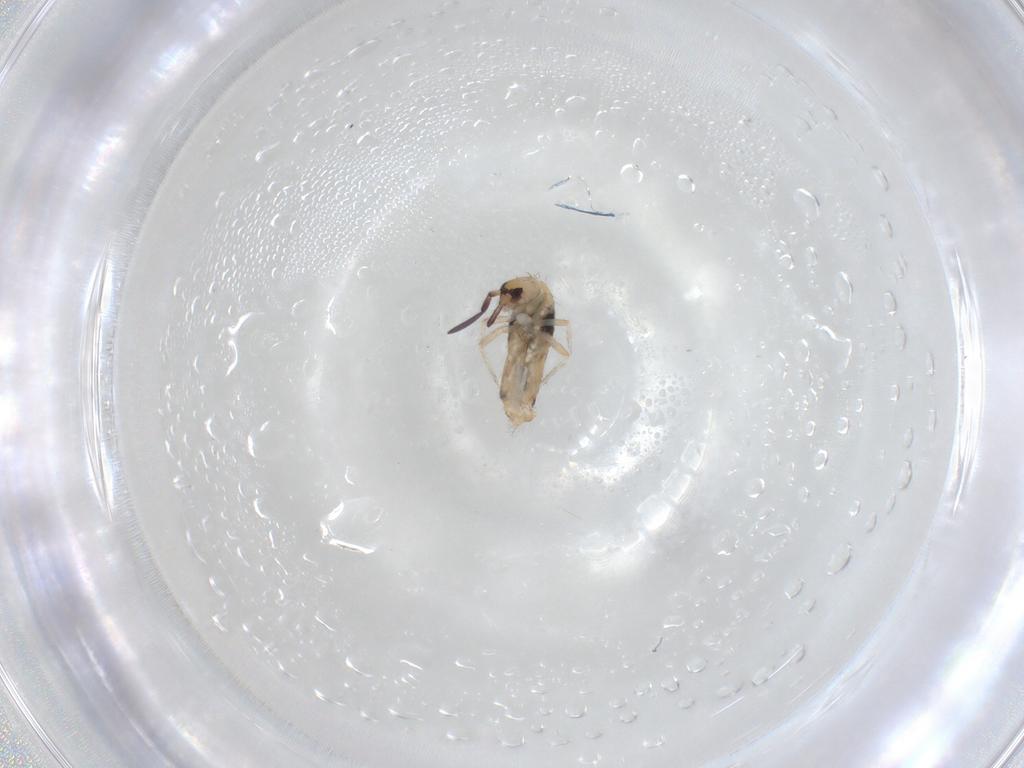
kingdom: Animalia
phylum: Arthropoda
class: Collembola
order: Entomobryomorpha
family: Entomobryidae
